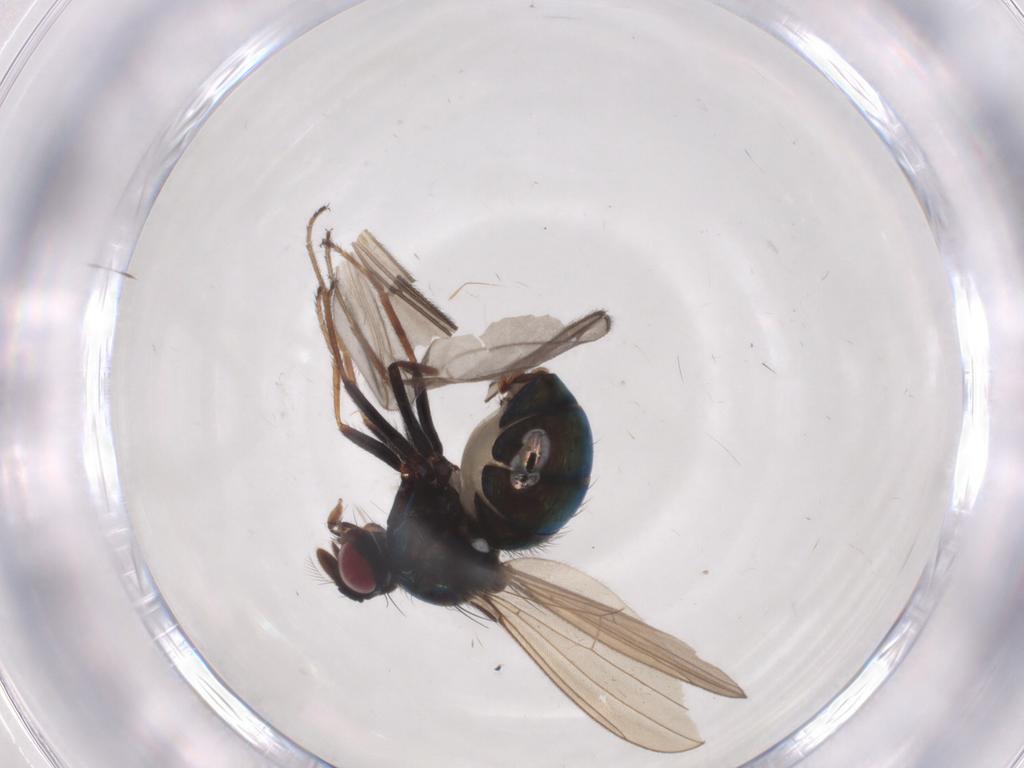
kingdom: Animalia
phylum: Arthropoda
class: Insecta
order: Diptera
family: Ephydridae
